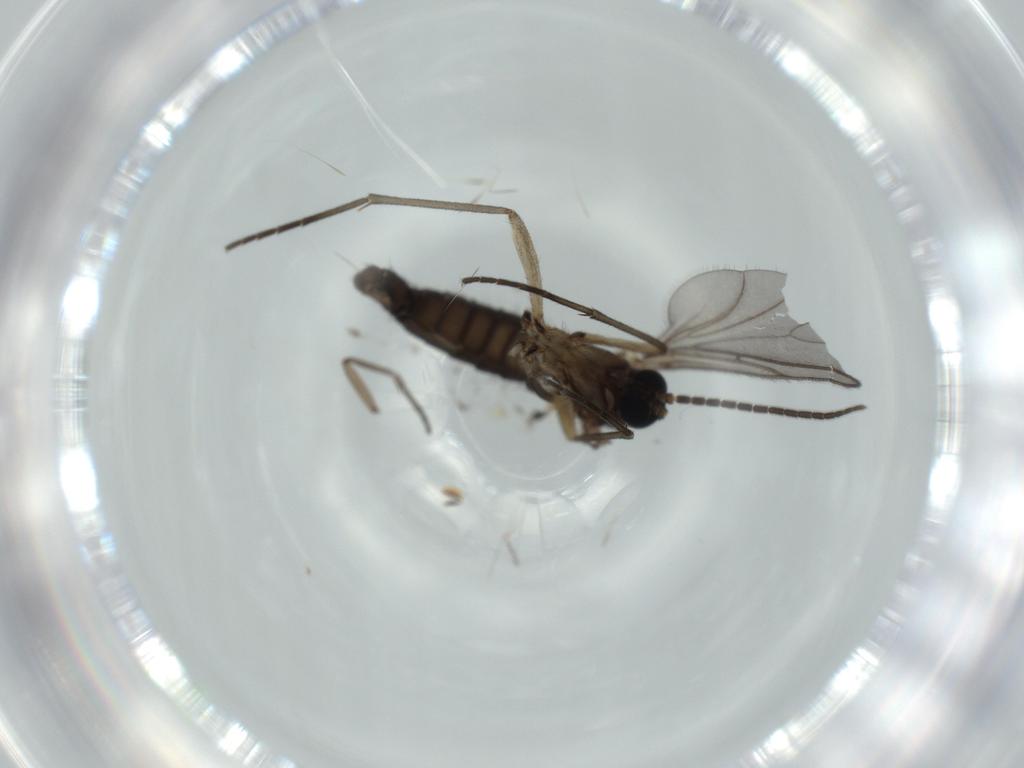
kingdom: Animalia
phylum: Arthropoda
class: Insecta
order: Diptera
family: Sciaridae
